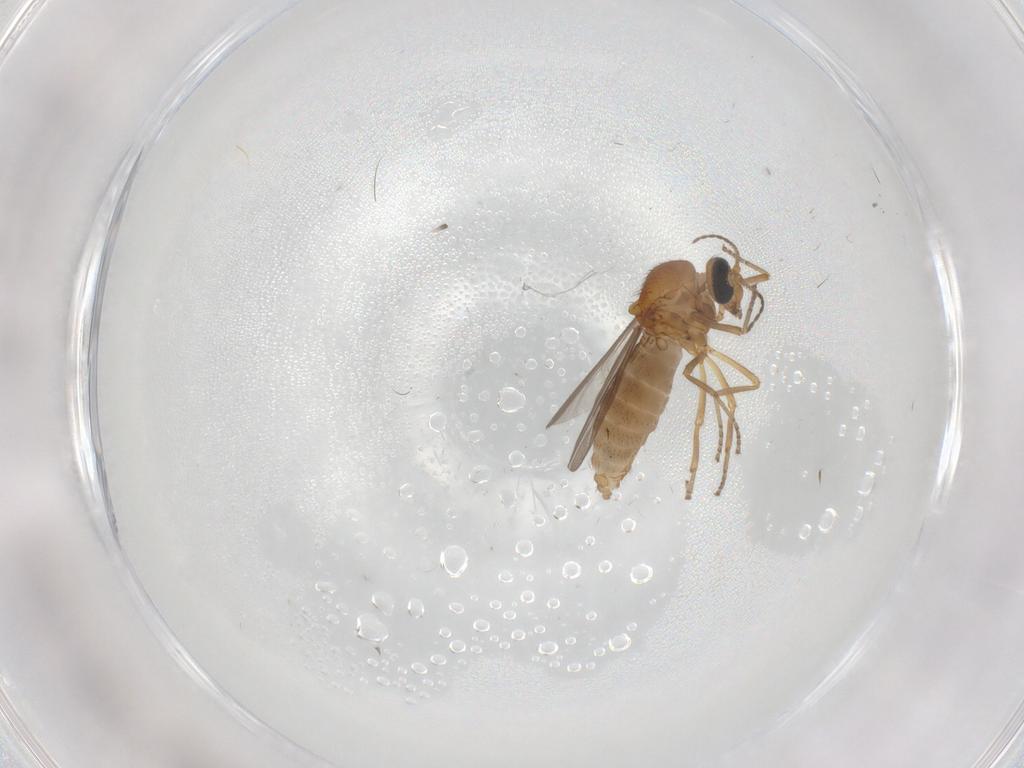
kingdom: Animalia
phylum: Arthropoda
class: Insecta
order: Diptera
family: Ceratopogonidae
